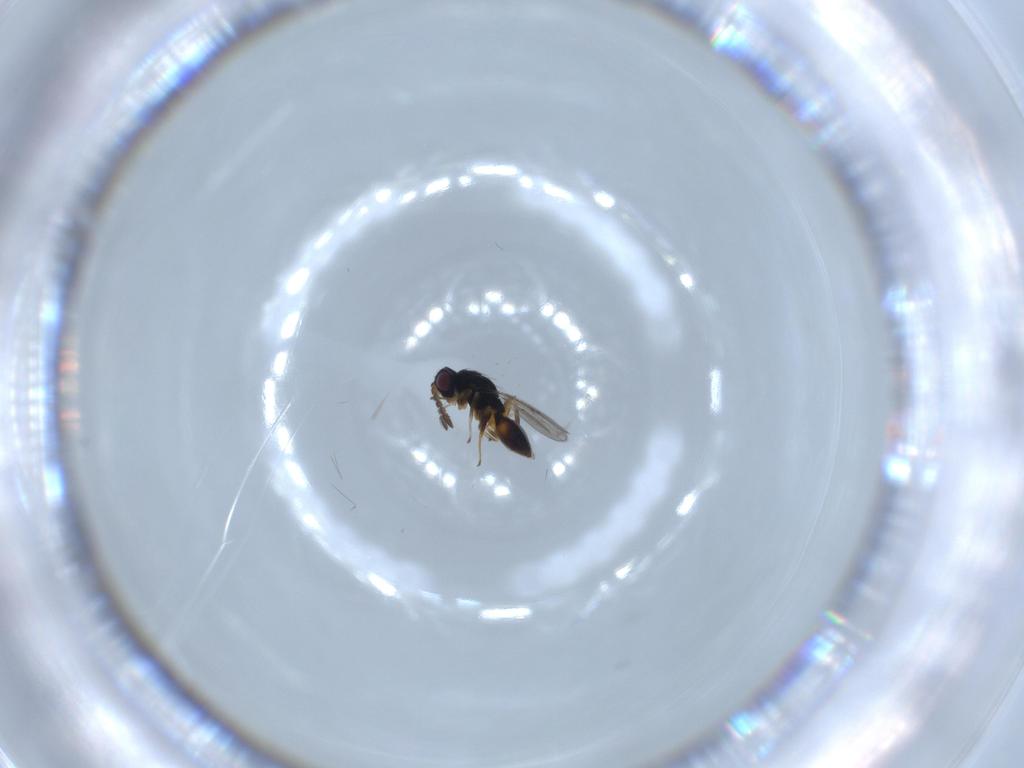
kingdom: Animalia
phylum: Arthropoda
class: Insecta
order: Hymenoptera
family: Moranilidae
